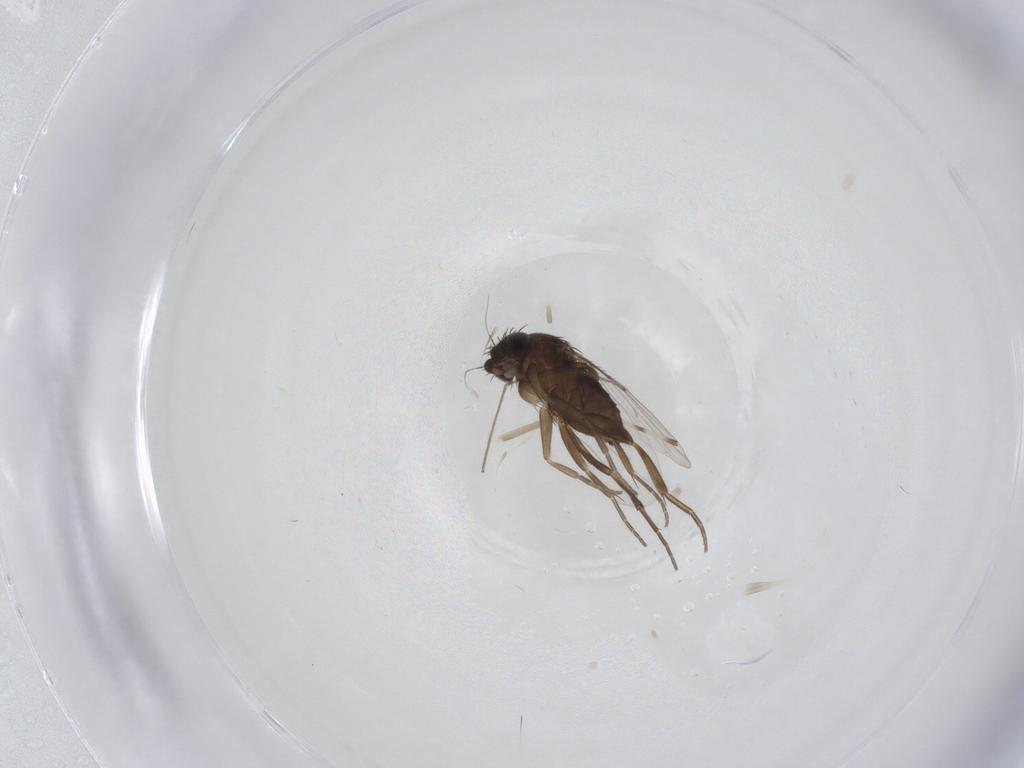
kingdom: Animalia
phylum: Arthropoda
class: Insecta
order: Diptera
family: Phoridae
